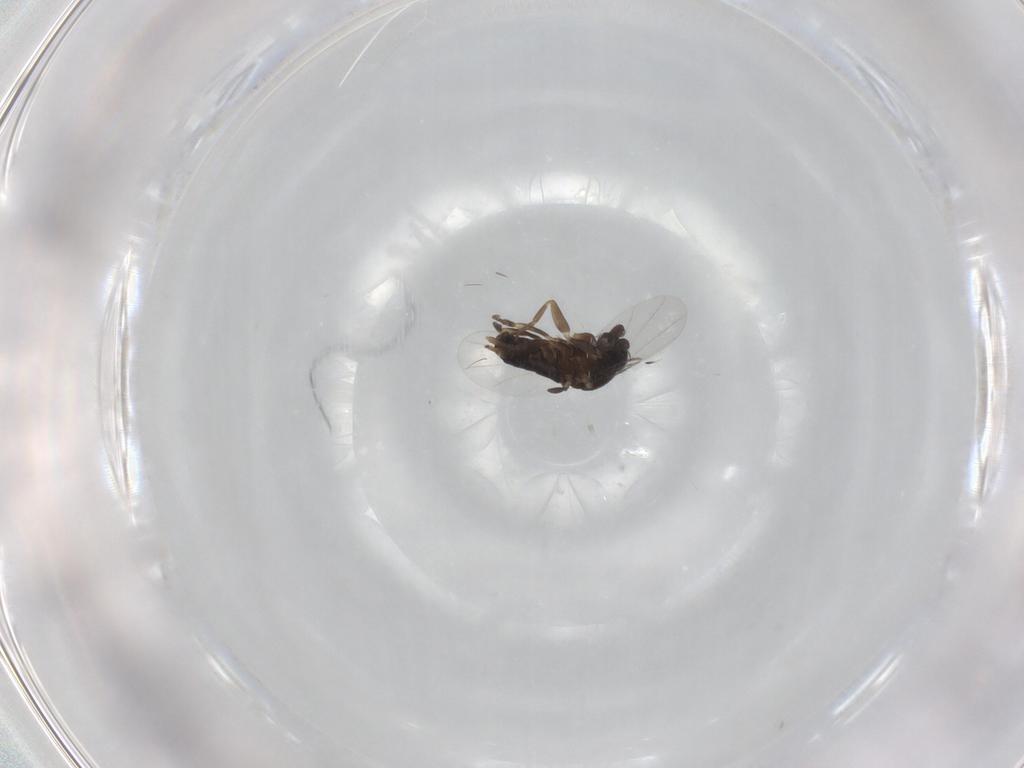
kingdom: Animalia
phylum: Arthropoda
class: Insecta
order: Diptera
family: Phoridae
